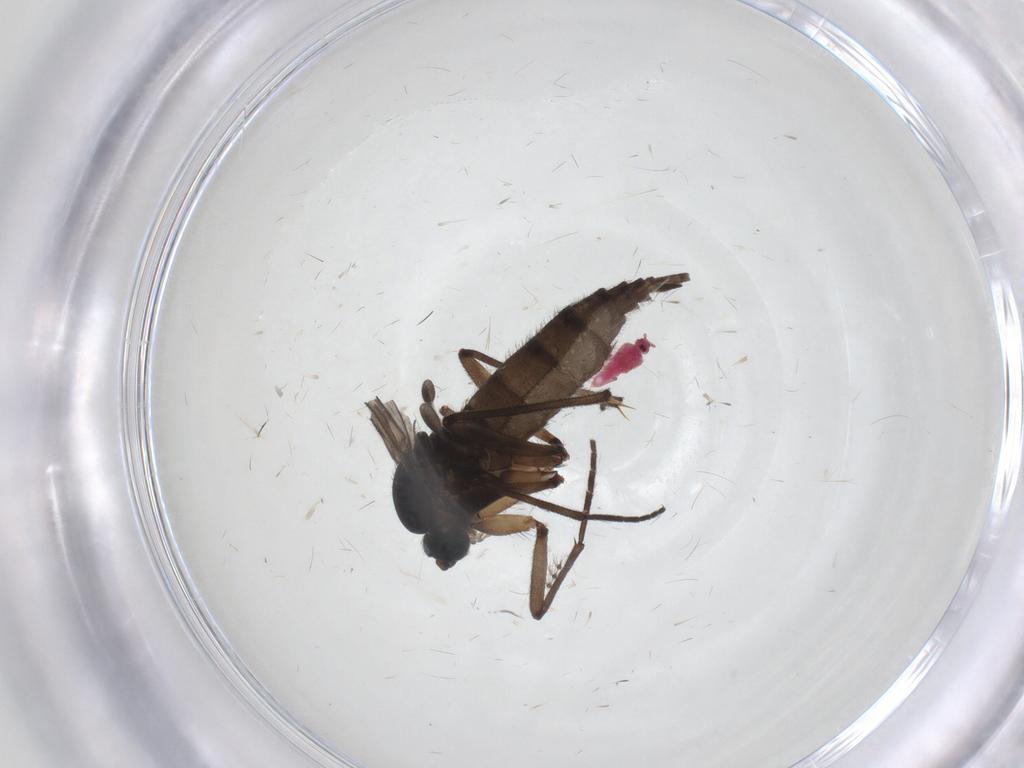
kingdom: Animalia
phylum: Arthropoda
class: Insecta
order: Diptera
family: Sciaridae
